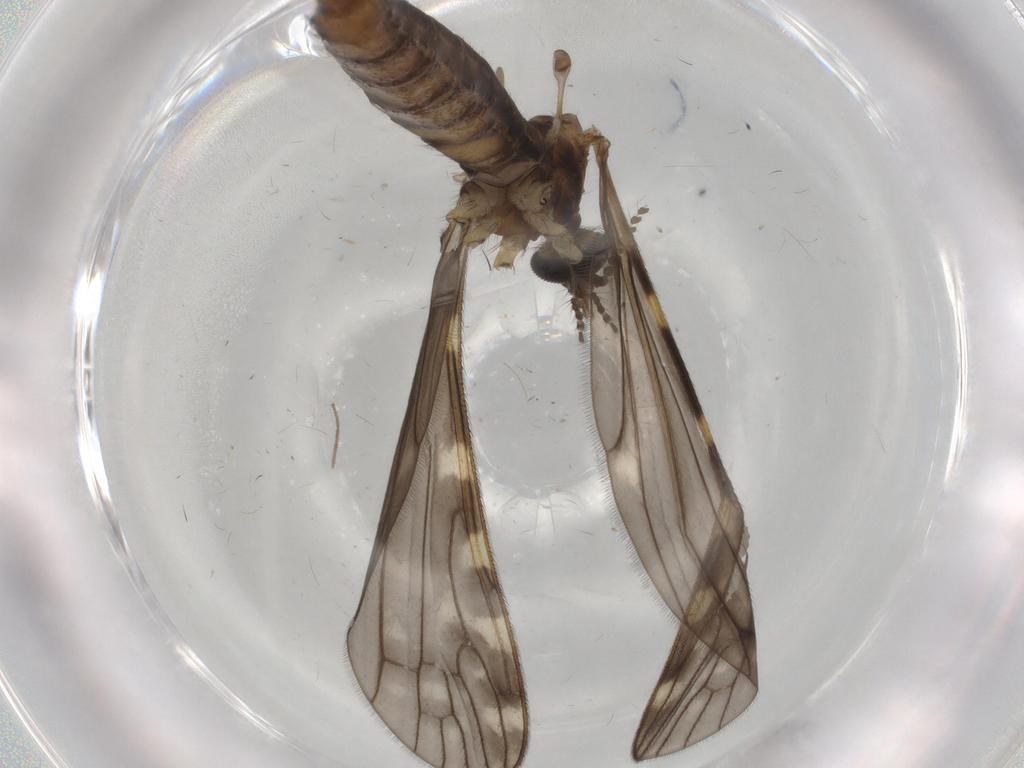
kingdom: Animalia
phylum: Arthropoda
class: Insecta
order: Diptera
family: Limoniidae
